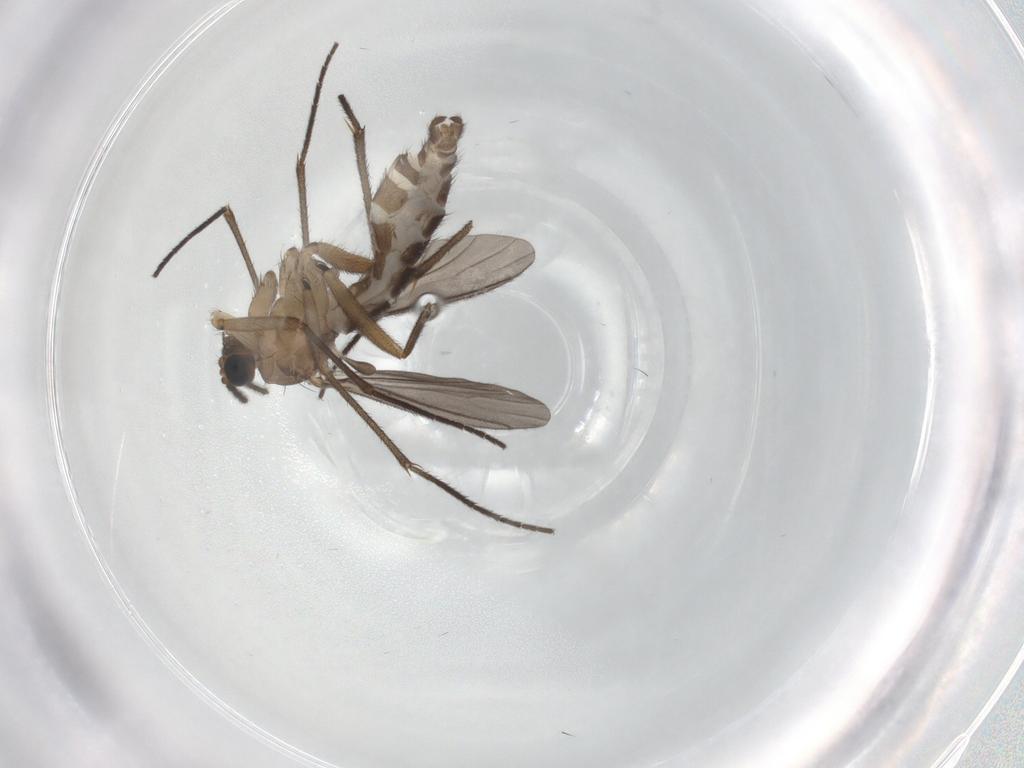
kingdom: Animalia
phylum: Arthropoda
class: Insecta
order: Diptera
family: Sciaridae
